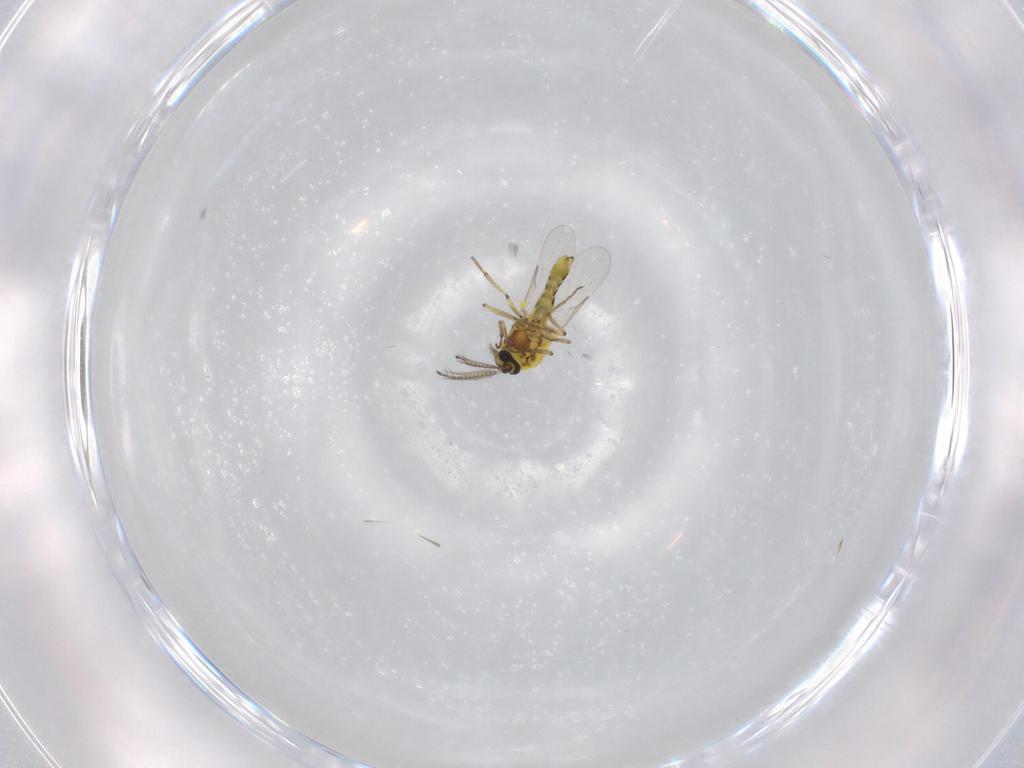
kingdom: Animalia
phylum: Arthropoda
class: Insecta
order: Diptera
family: Ceratopogonidae
